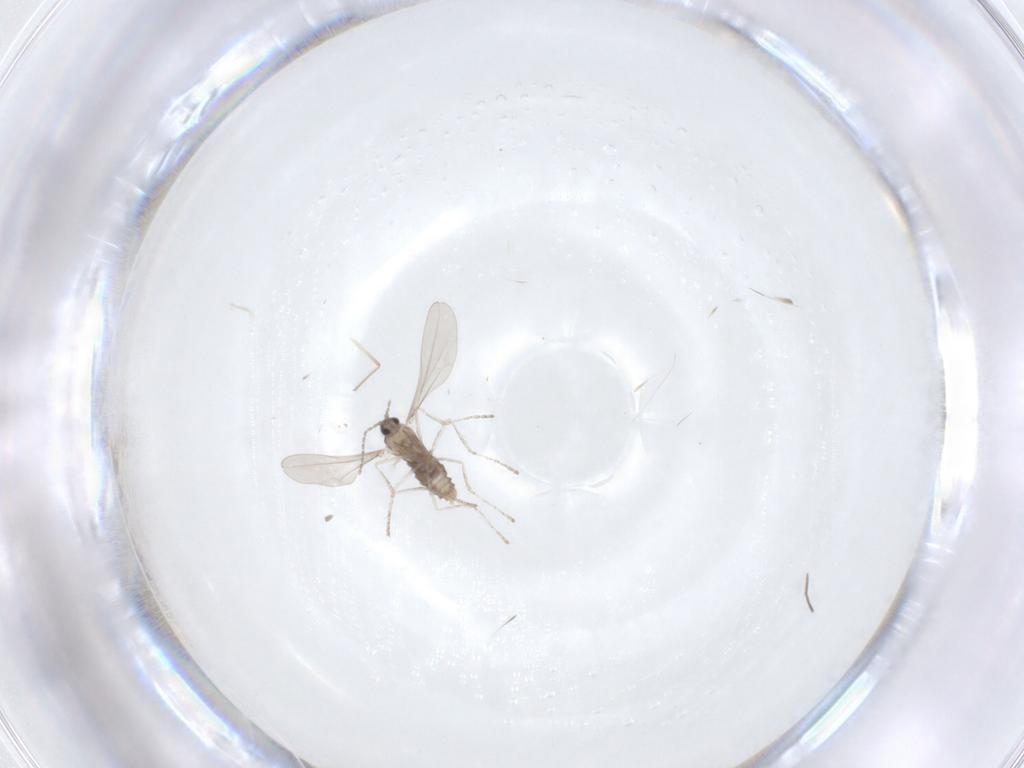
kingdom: Animalia
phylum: Arthropoda
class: Insecta
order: Diptera
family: Chironomidae
